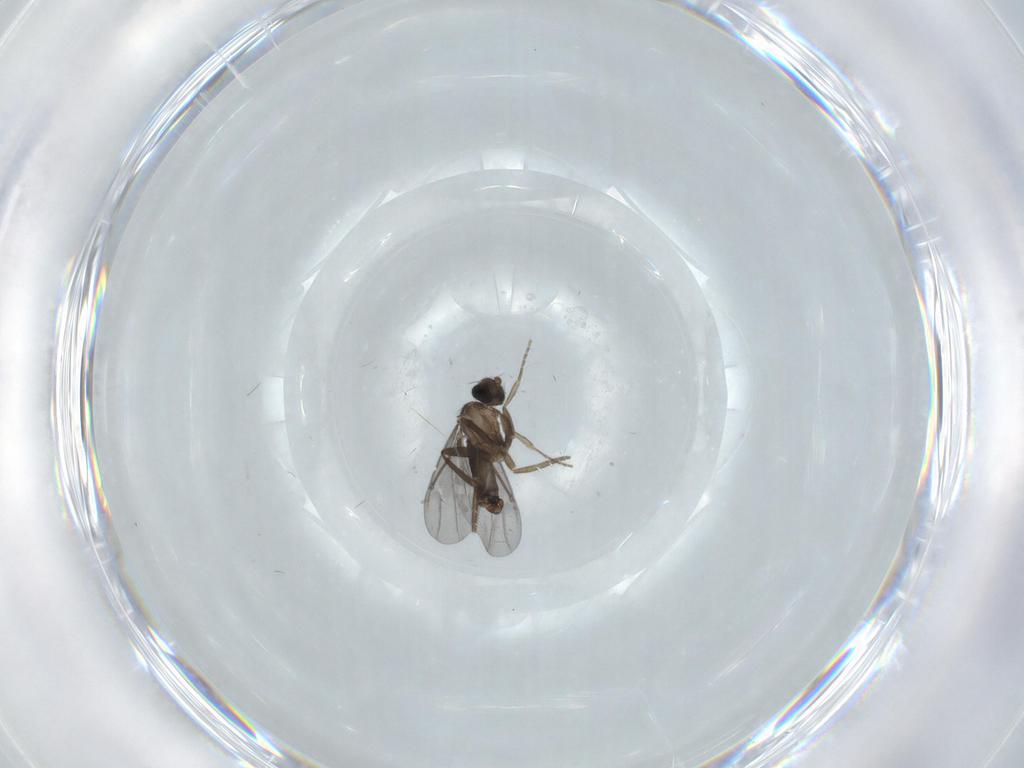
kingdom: Animalia
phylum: Arthropoda
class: Insecta
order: Diptera
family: Ceratopogonidae
